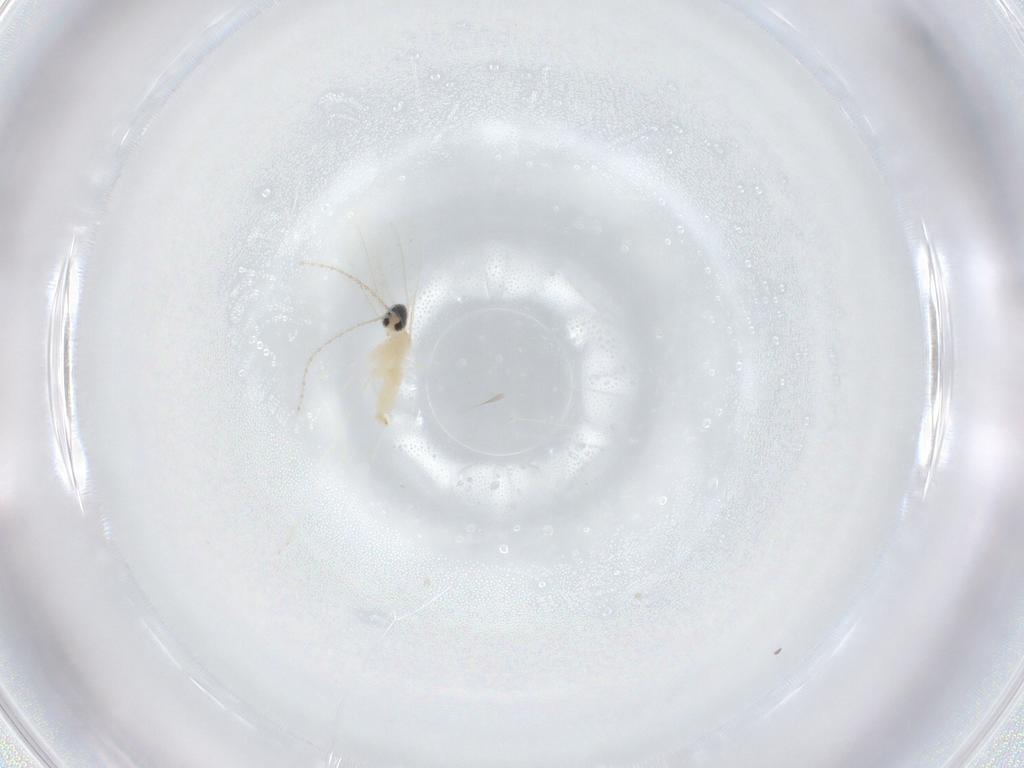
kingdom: Animalia
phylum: Arthropoda
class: Insecta
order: Diptera
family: Cecidomyiidae
